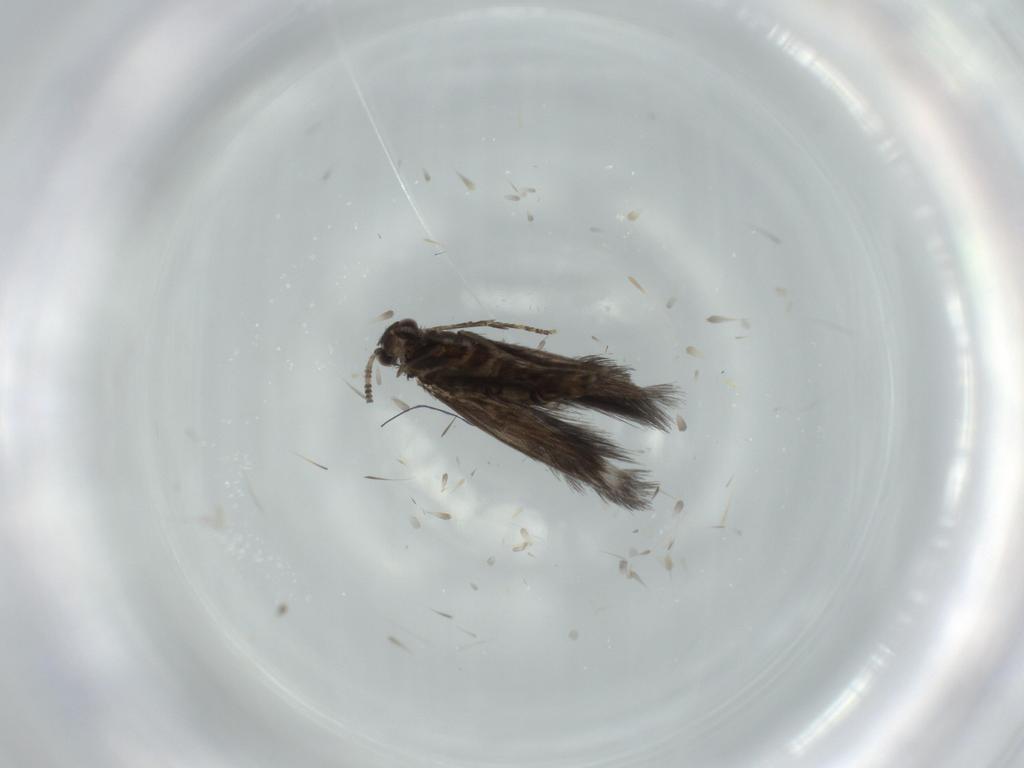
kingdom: Animalia
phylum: Arthropoda
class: Insecta
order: Trichoptera
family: Hydroptilidae
